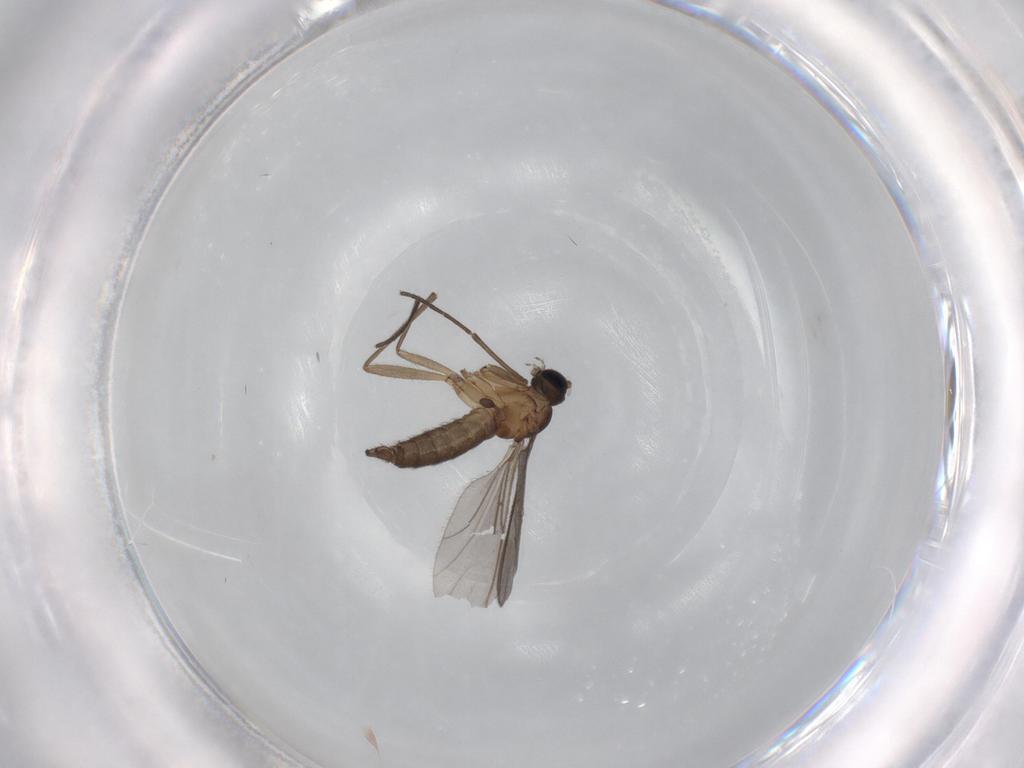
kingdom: Animalia
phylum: Arthropoda
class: Insecta
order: Diptera
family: Sciaridae
